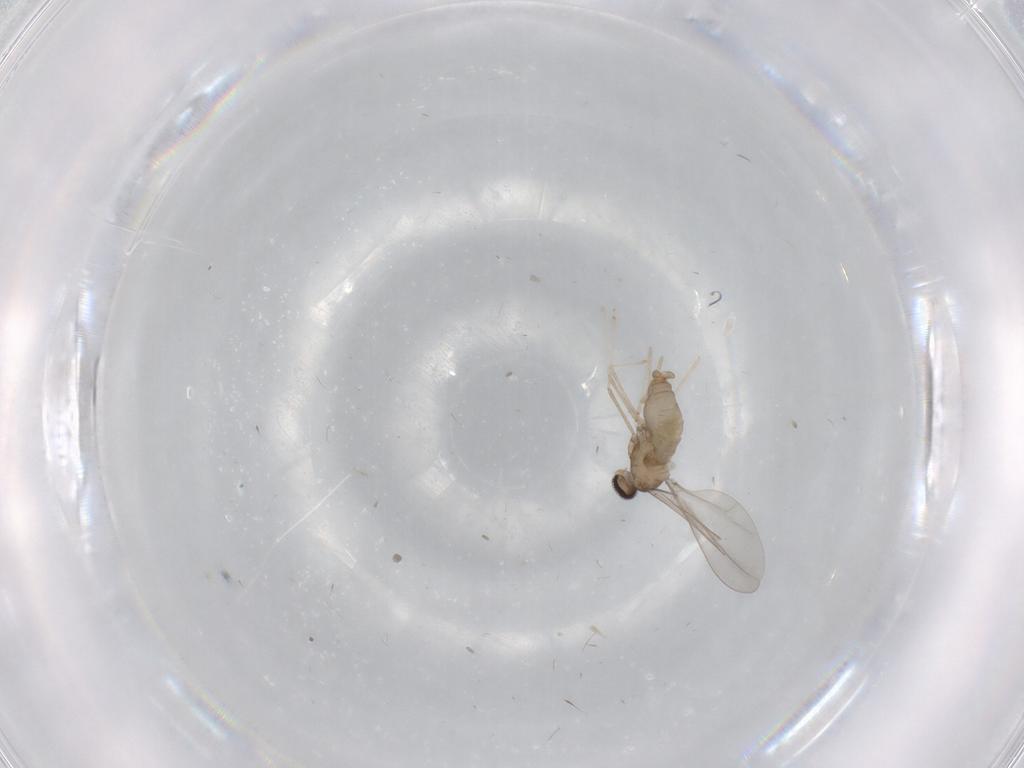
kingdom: Animalia
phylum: Arthropoda
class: Insecta
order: Diptera
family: Cecidomyiidae
